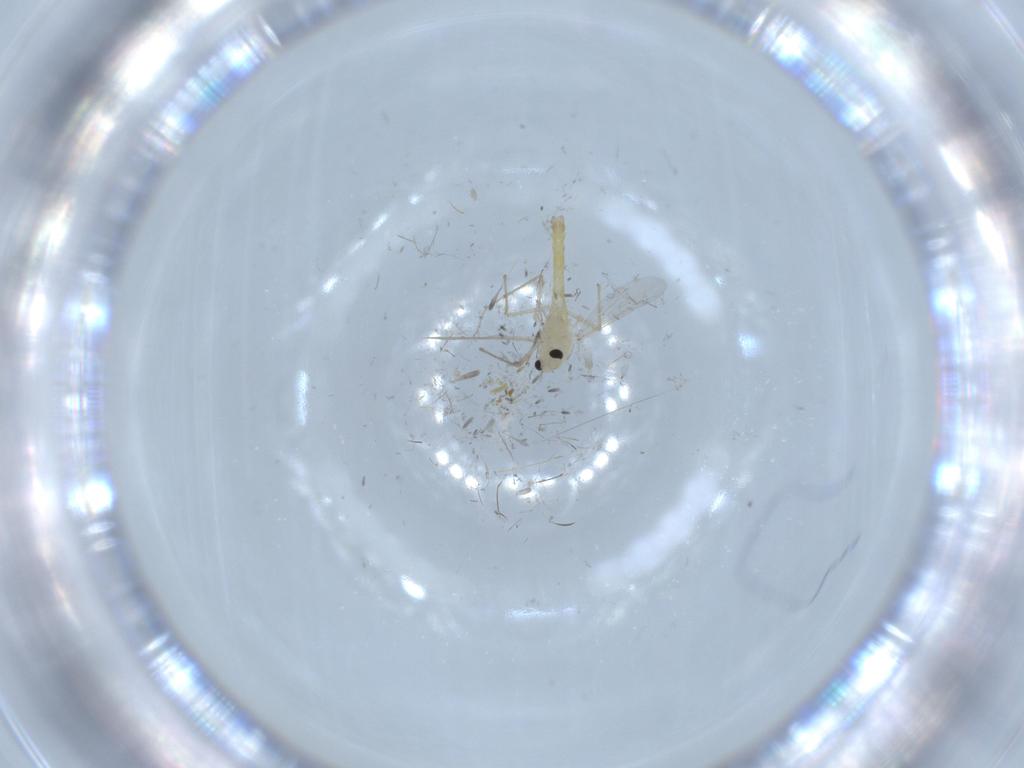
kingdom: Animalia
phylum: Arthropoda
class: Insecta
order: Diptera
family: Chironomidae
